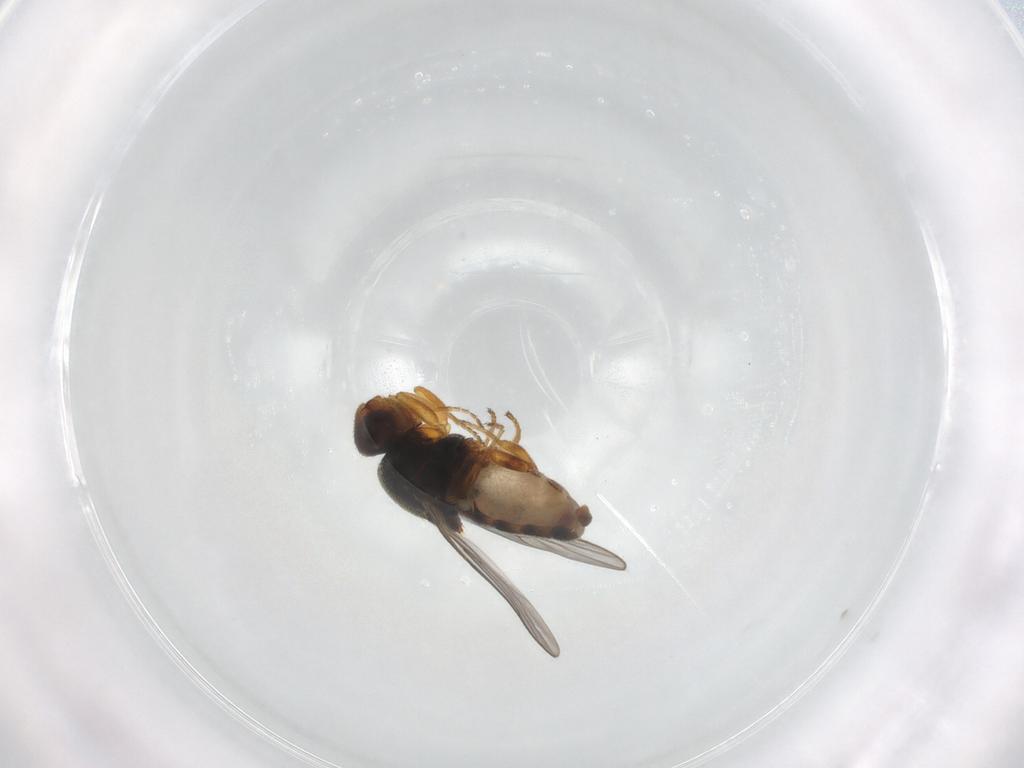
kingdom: Animalia
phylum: Arthropoda
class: Insecta
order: Diptera
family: Chloropidae
